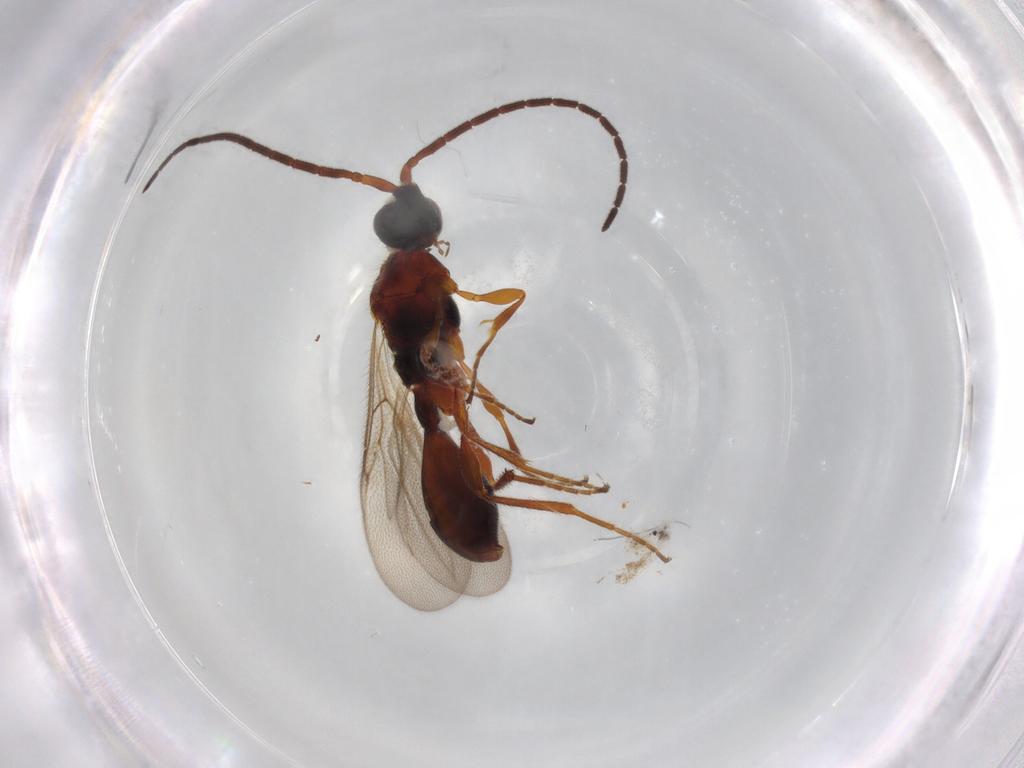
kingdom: Animalia
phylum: Arthropoda
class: Insecta
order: Hymenoptera
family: Diapriidae
